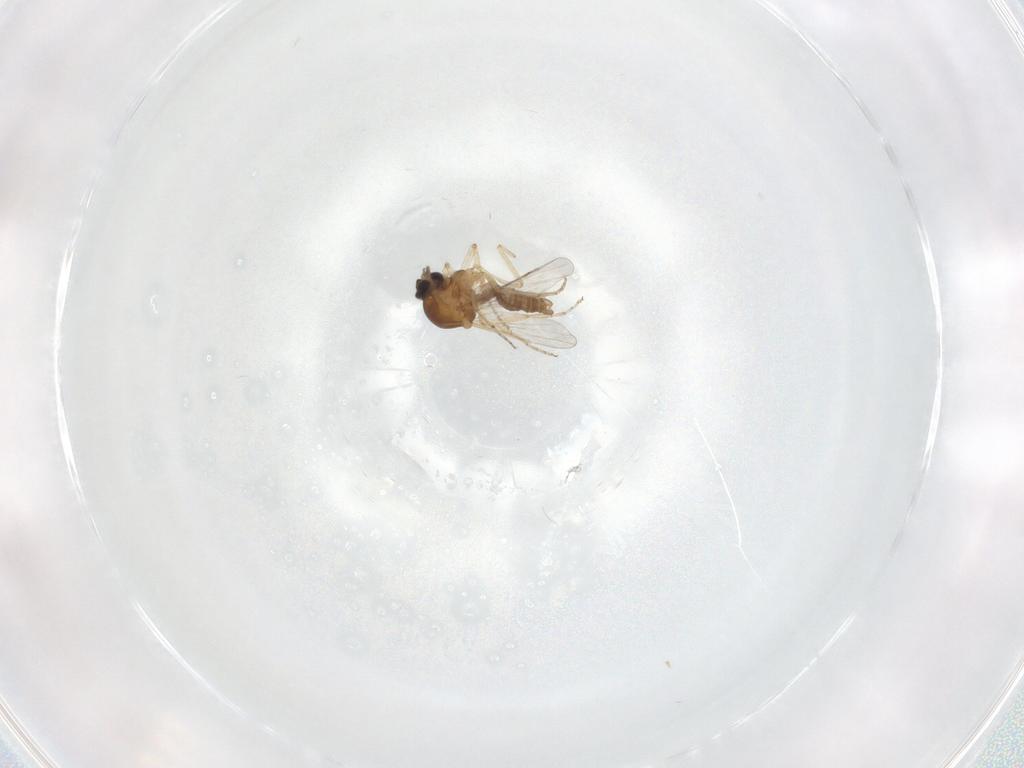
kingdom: Animalia
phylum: Arthropoda
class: Insecta
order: Diptera
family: Ceratopogonidae
